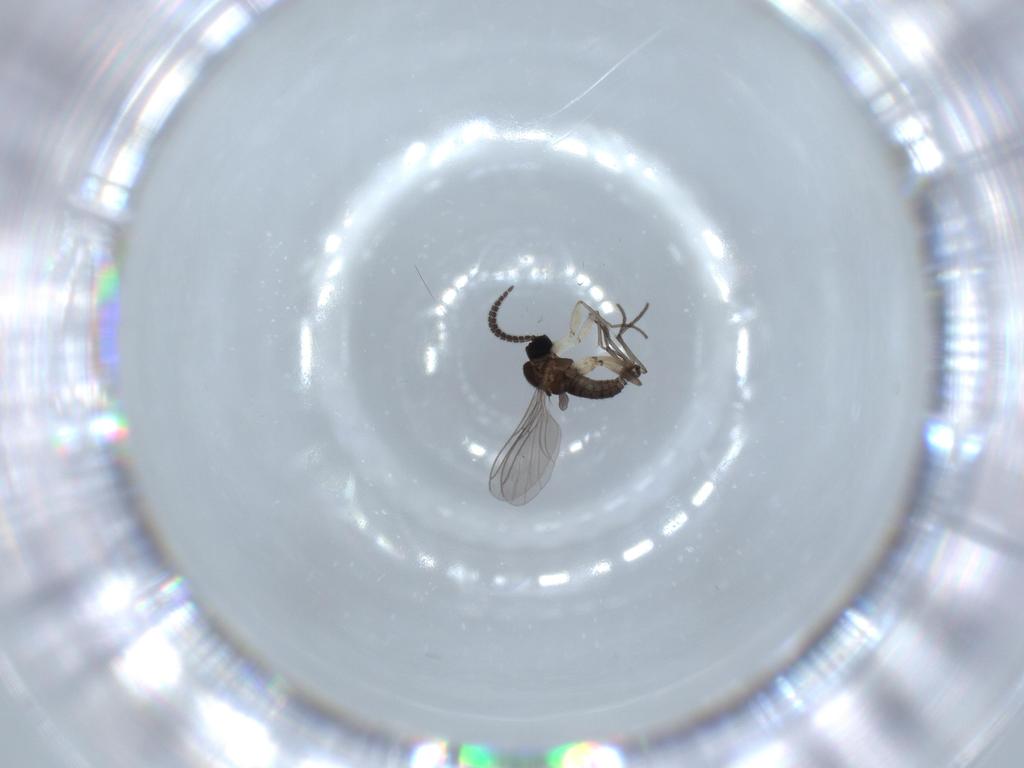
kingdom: Animalia
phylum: Arthropoda
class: Insecta
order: Diptera
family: Sciaridae
